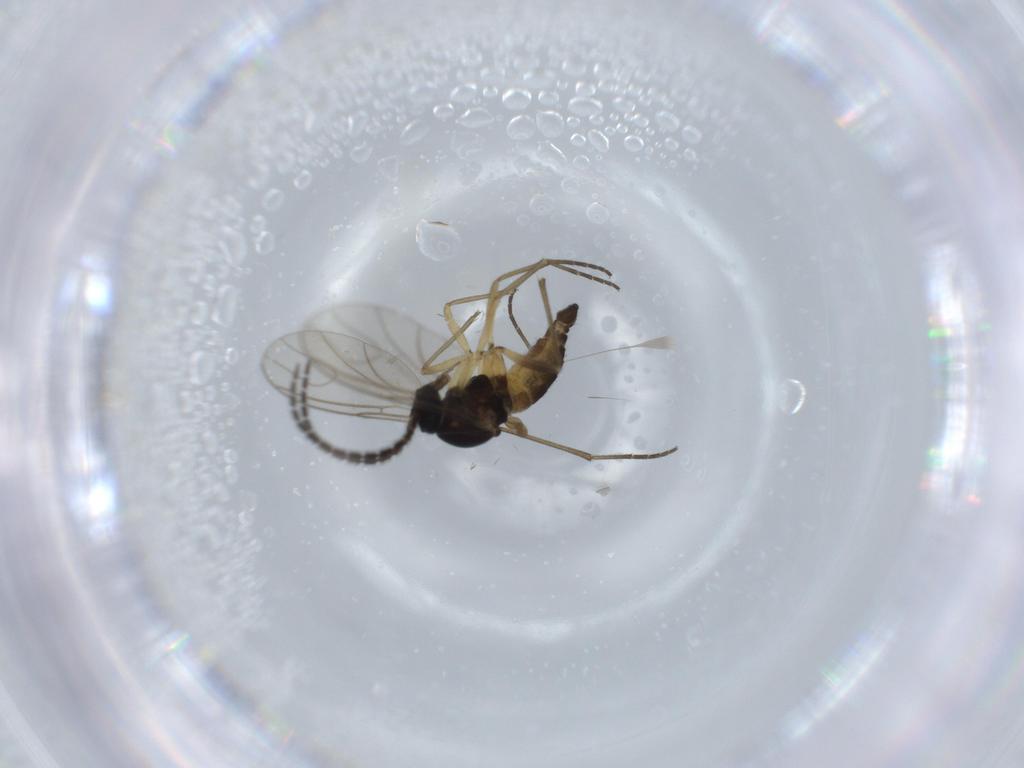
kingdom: Animalia
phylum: Arthropoda
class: Insecta
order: Diptera
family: Sciaridae
